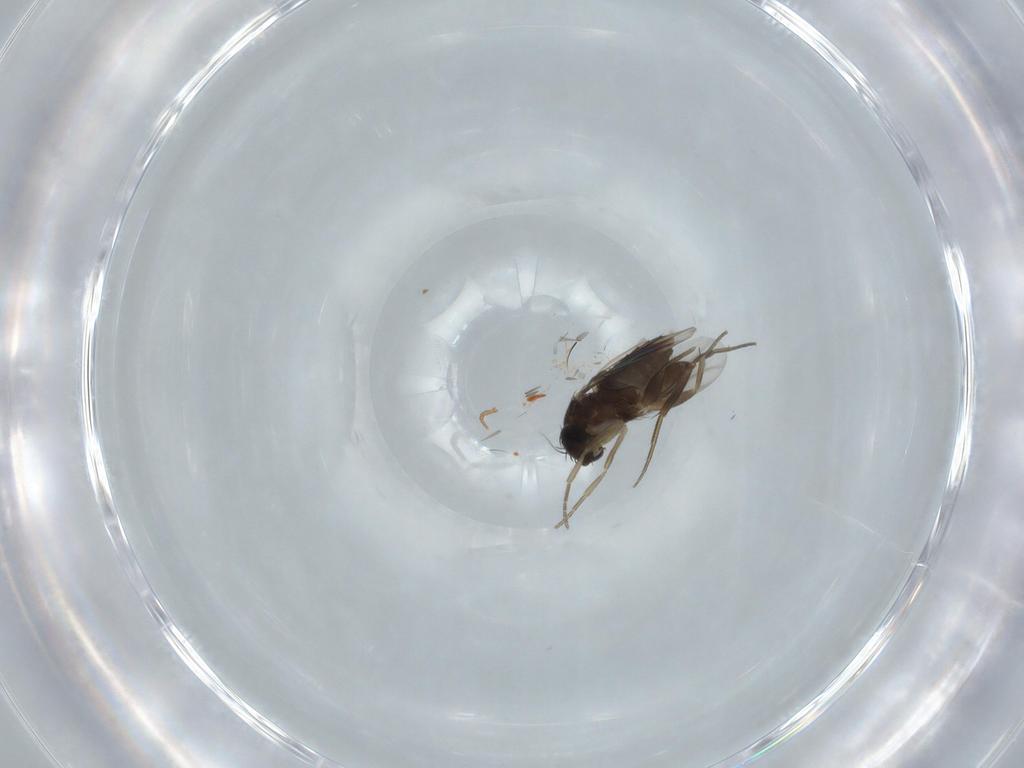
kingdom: Animalia
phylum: Arthropoda
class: Insecta
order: Diptera
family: Phoridae
